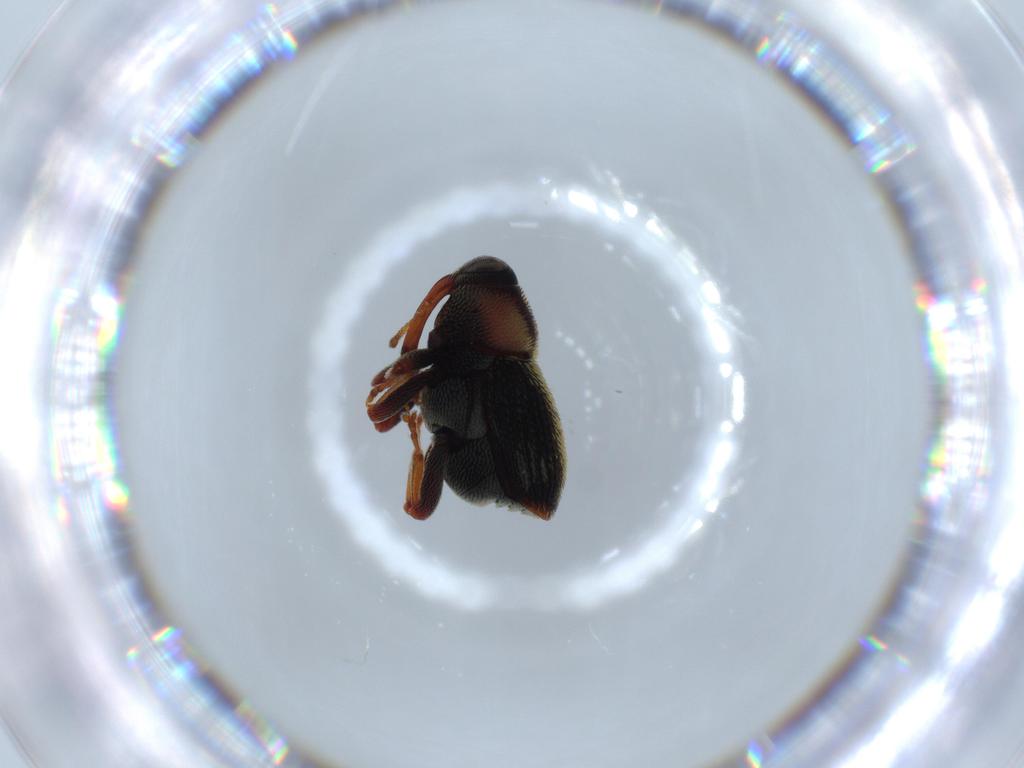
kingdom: Animalia
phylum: Arthropoda
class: Insecta
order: Coleoptera
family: Curculionidae
